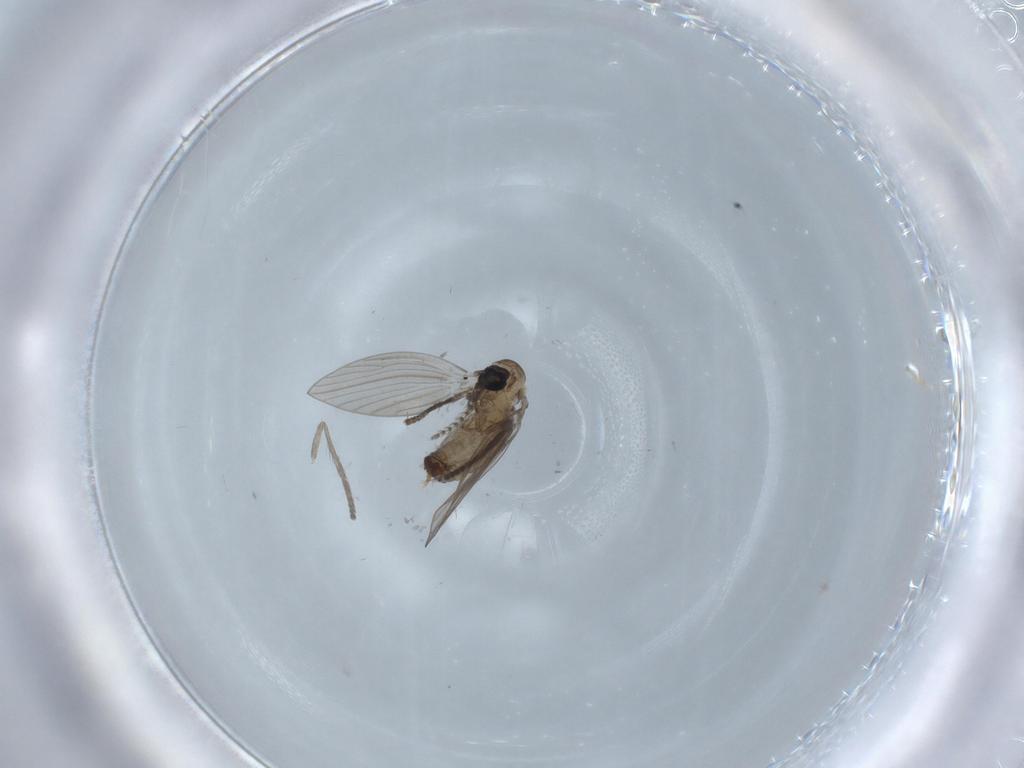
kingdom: Animalia
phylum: Arthropoda
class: Insecta
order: Diptera
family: Psychodidae
